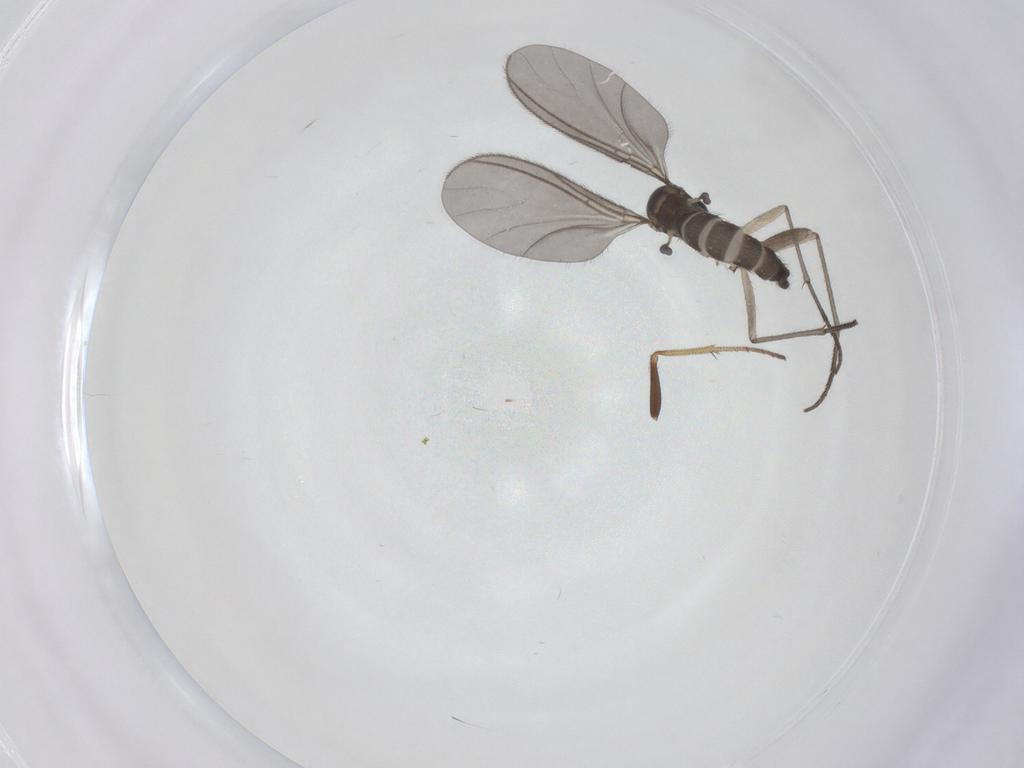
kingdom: Animalia
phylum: Arthropoda
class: Insecta
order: Diptera
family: Sciaridae
